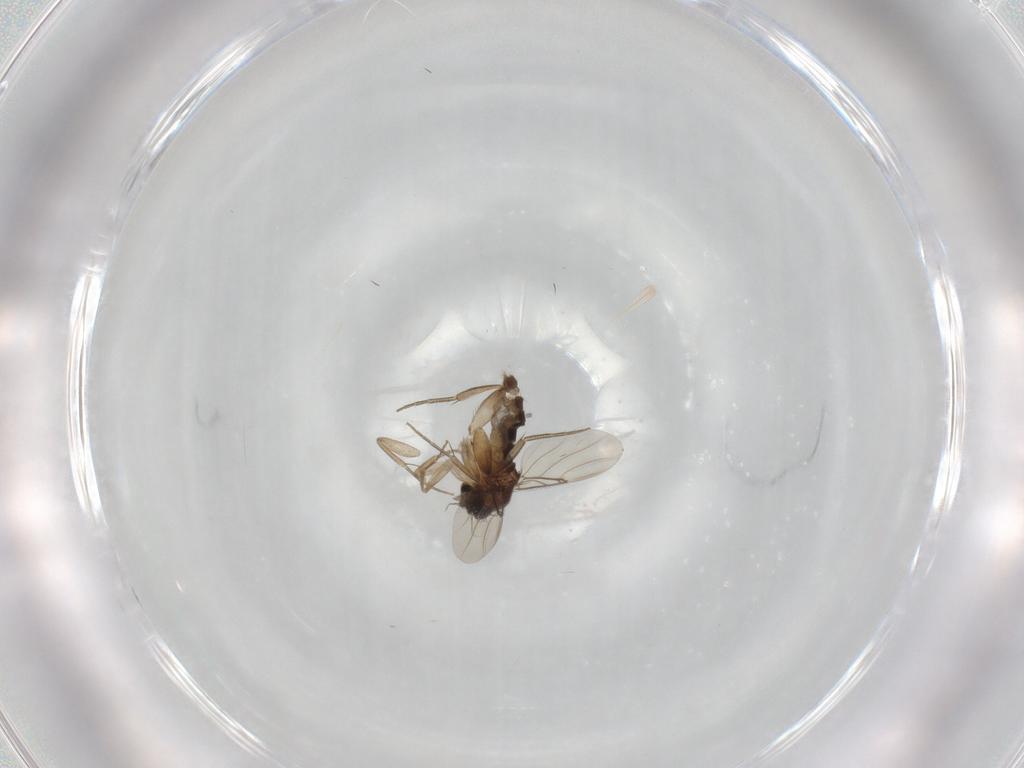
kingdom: Animalia
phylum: Arthropoda
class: Insecta
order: Diptera
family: Phoridae
